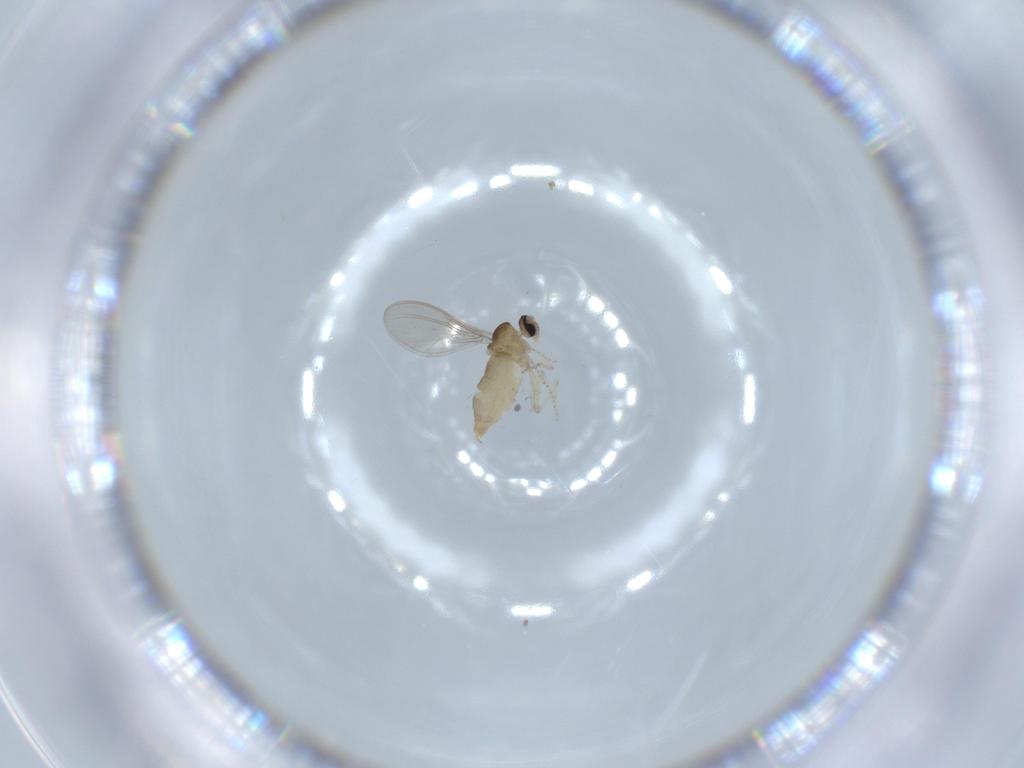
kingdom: Animalia
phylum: Arthropoda
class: Insecta
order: Diptera
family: Cecidomyiidae
